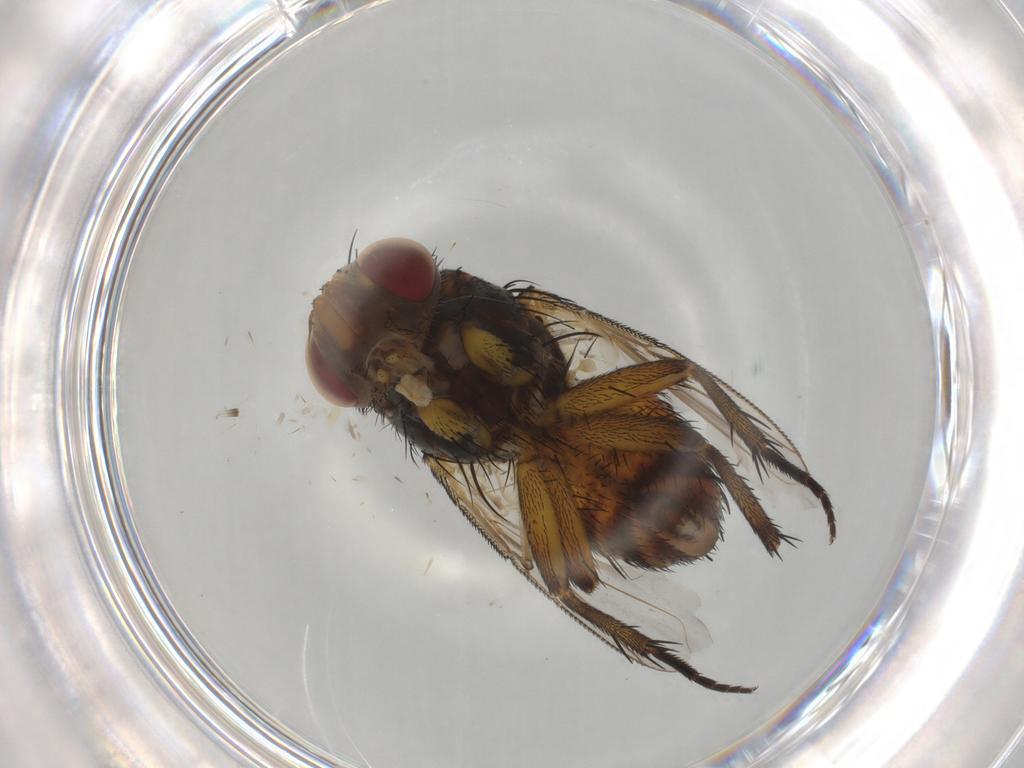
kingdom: Animalia
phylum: Arthropoda
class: Insecta
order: Diptera
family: Tachinidae
